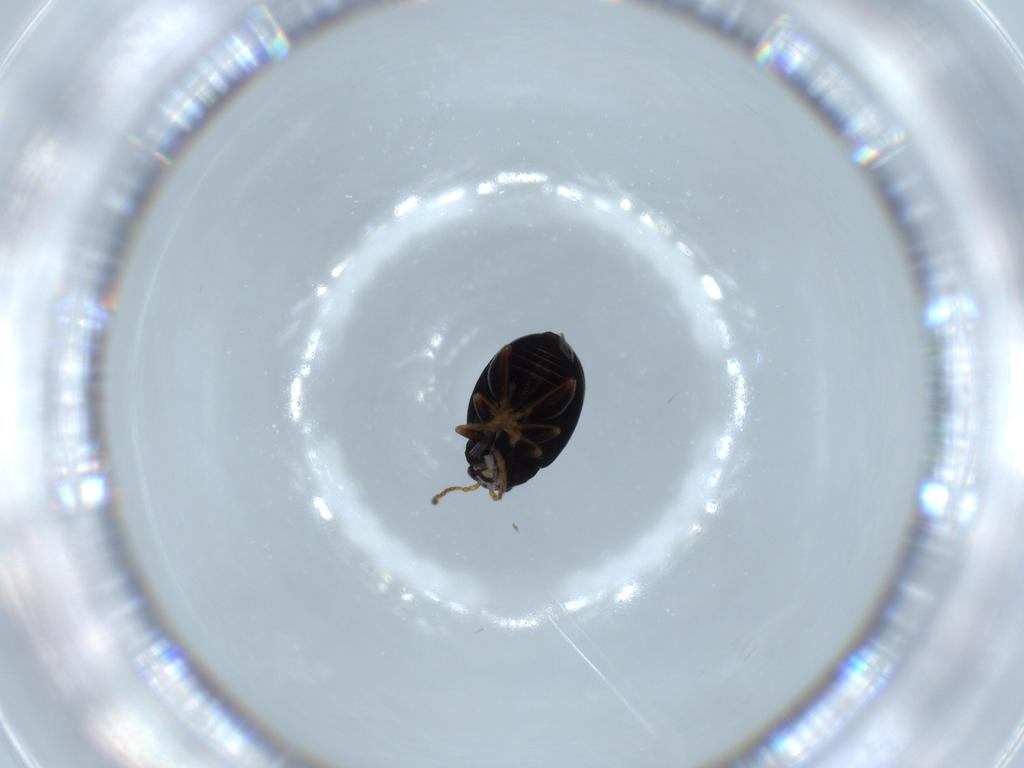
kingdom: Animalia
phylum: Arthropoda
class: Insecta
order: Coleoptera
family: Chrysomelidae
